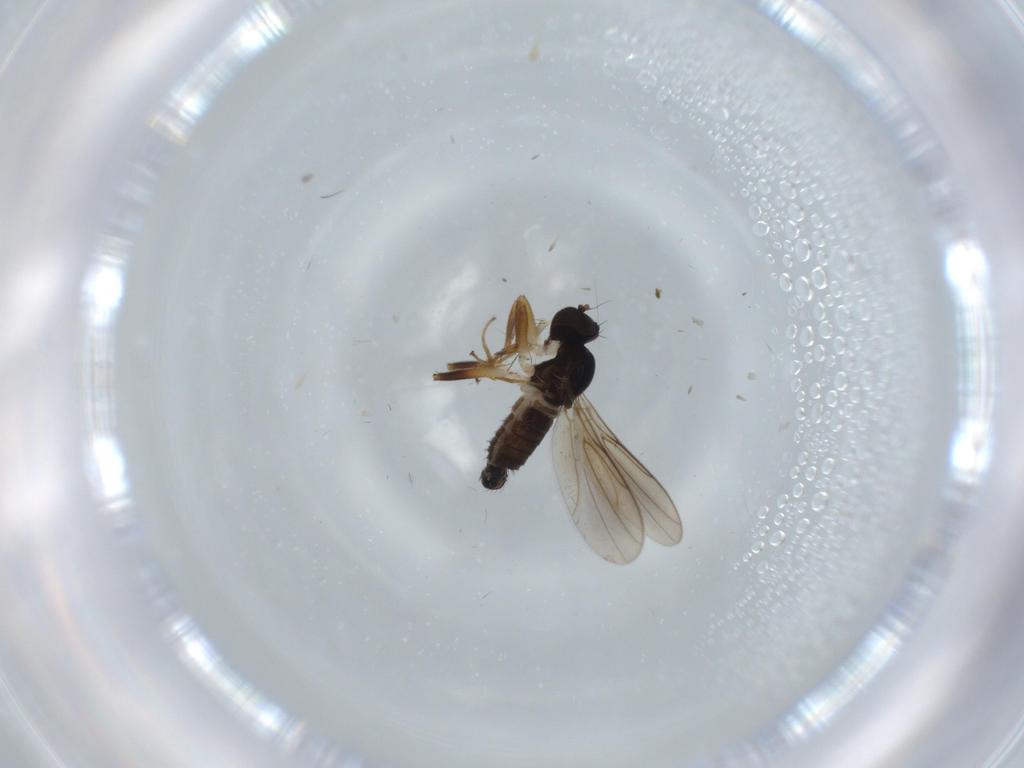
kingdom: Animalia
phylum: Arthropoda
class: Insecta
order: Diptera
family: Hybotidae
